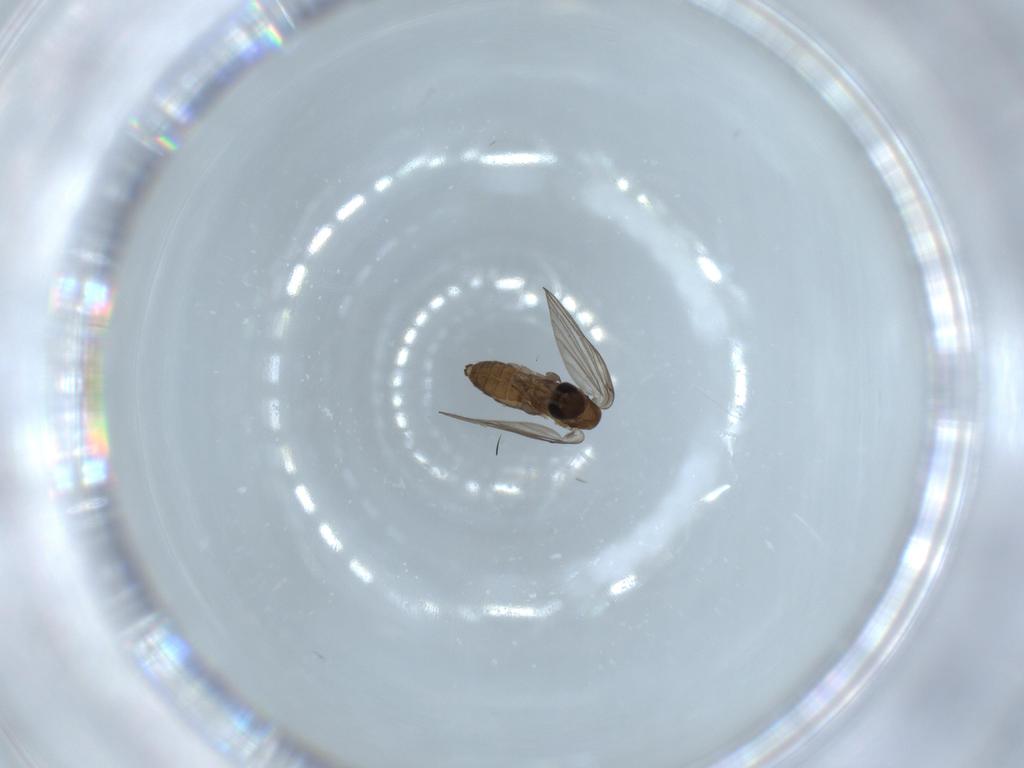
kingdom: Animalia
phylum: Arthropoda
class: Insecta
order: Diptera
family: Psychodidae
